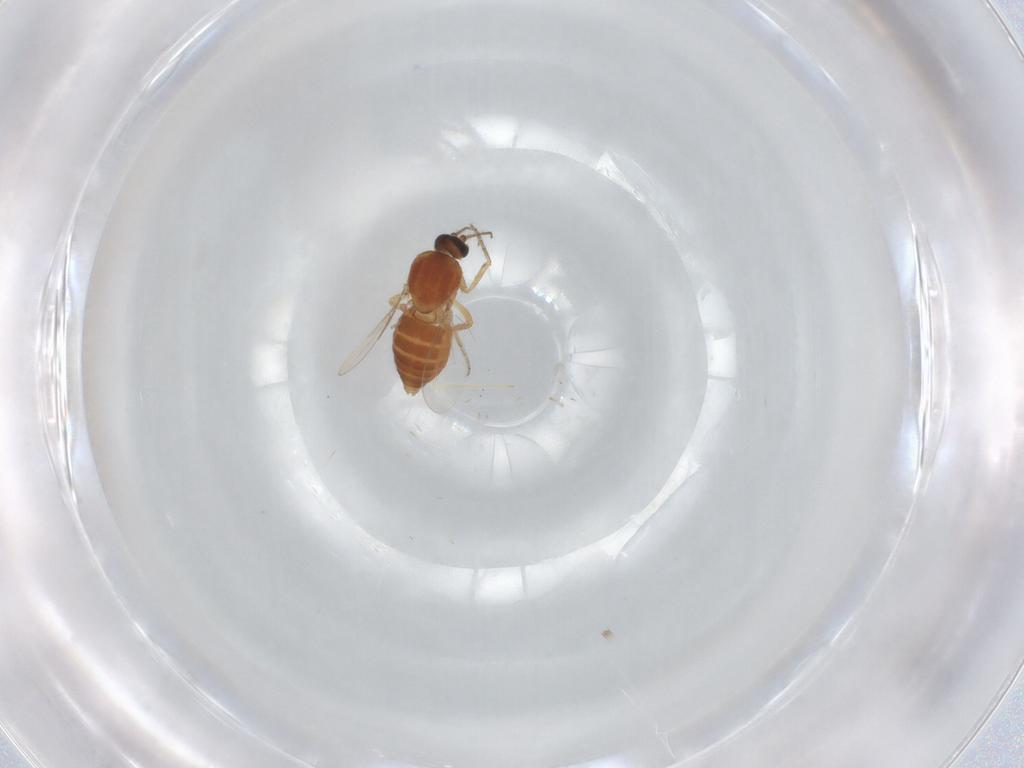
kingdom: Animalia
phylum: Arthropoda
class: Insecta
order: Diptera
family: Ceratopogonidae
